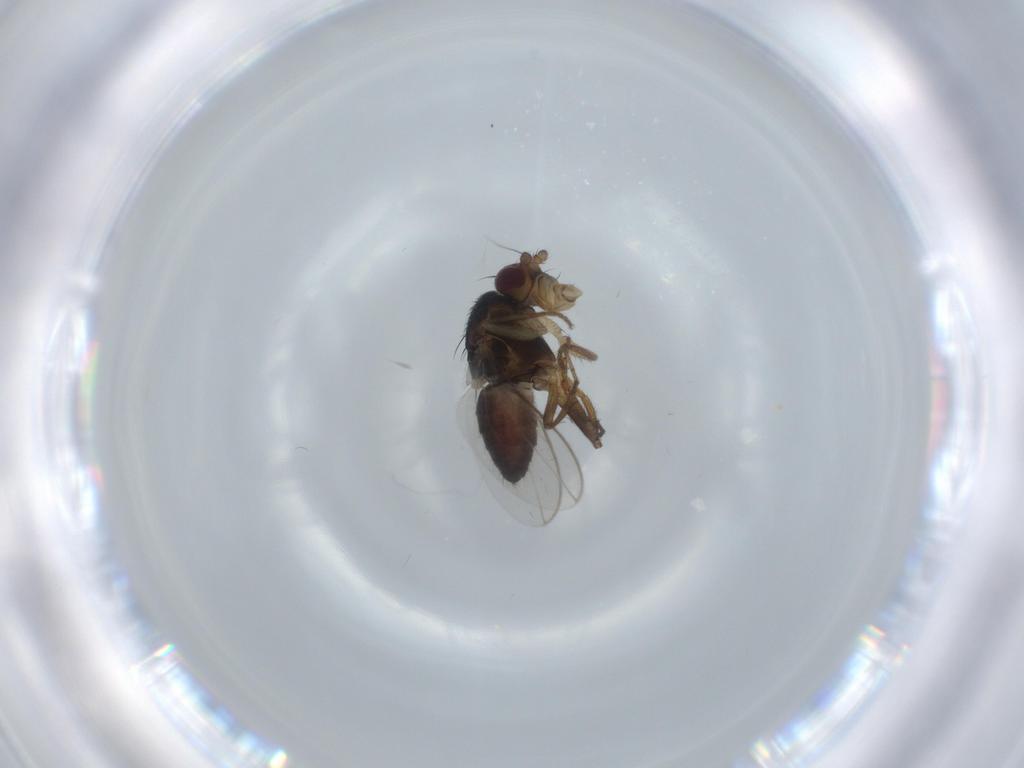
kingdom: Animalia
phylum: Arthropoda
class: Insecta
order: Diptera
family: Sphaeroceridae
